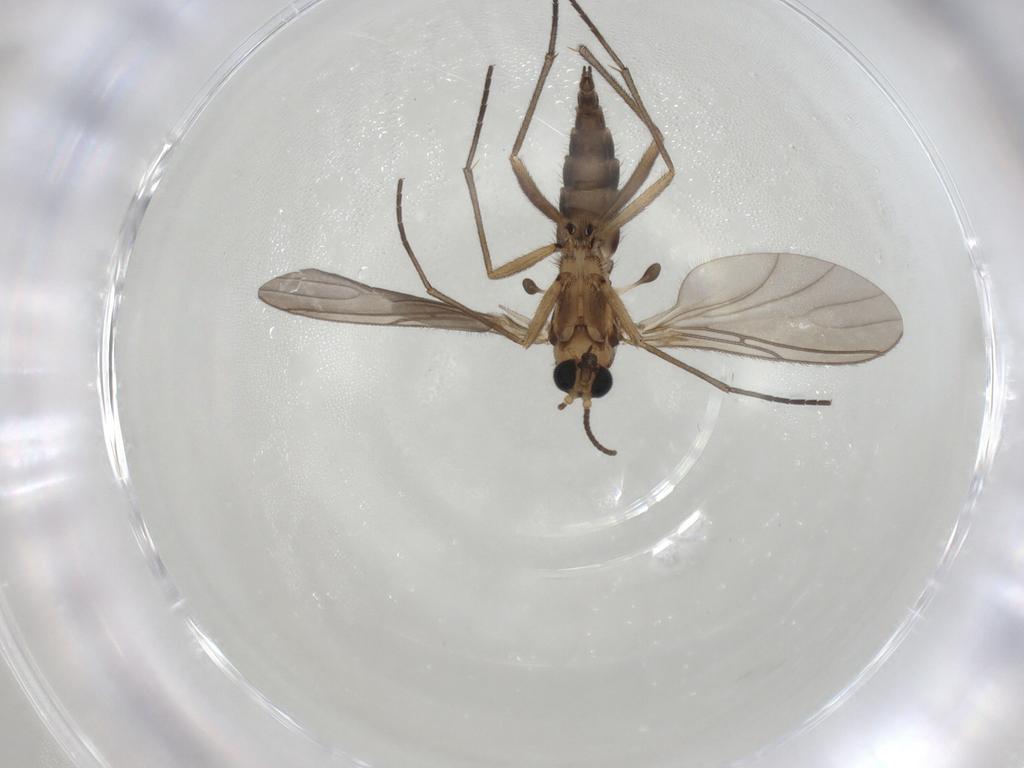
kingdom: Animalia
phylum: Arthropoda
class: Insecta
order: Diptera
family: Sciaridae
